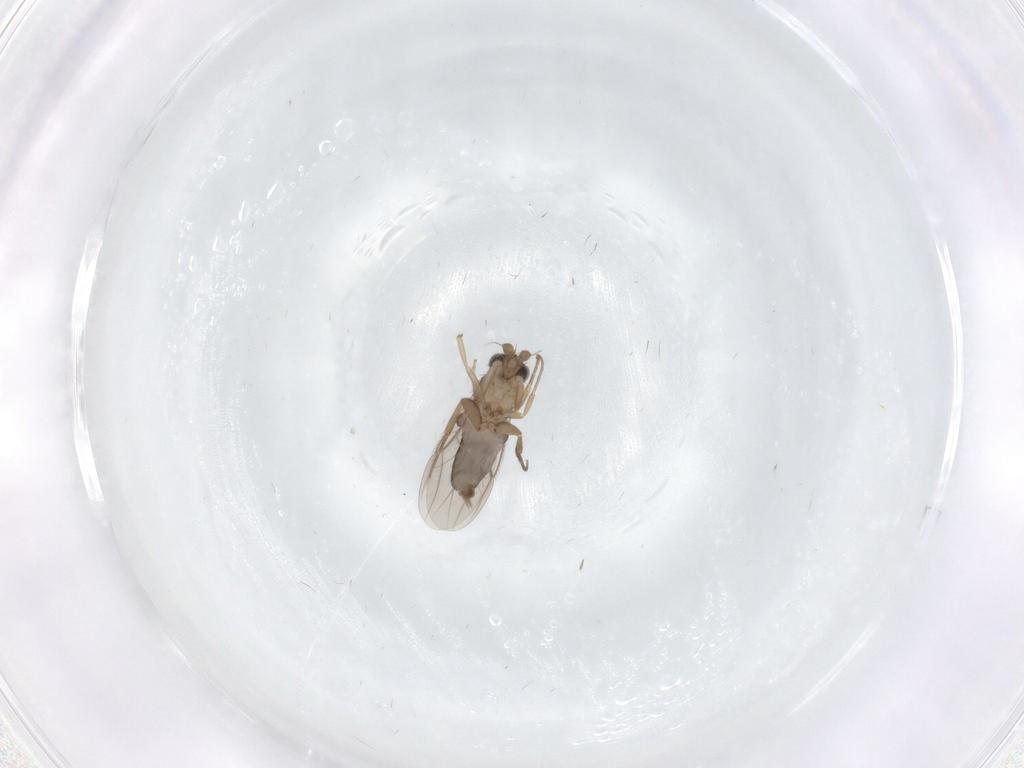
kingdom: Animalia
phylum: Arthropoda
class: Insecta
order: Diptera
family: Phoridae
